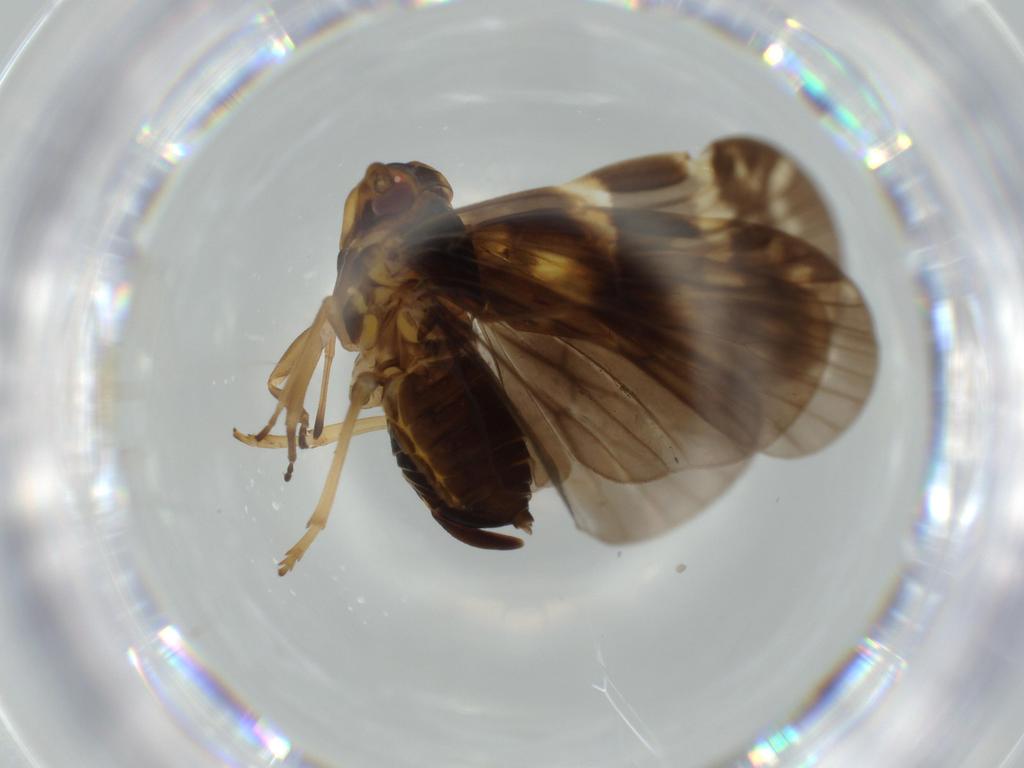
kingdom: Animalia
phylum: Arthropoda
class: Insecta
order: Hemiptera
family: Cixiidae
